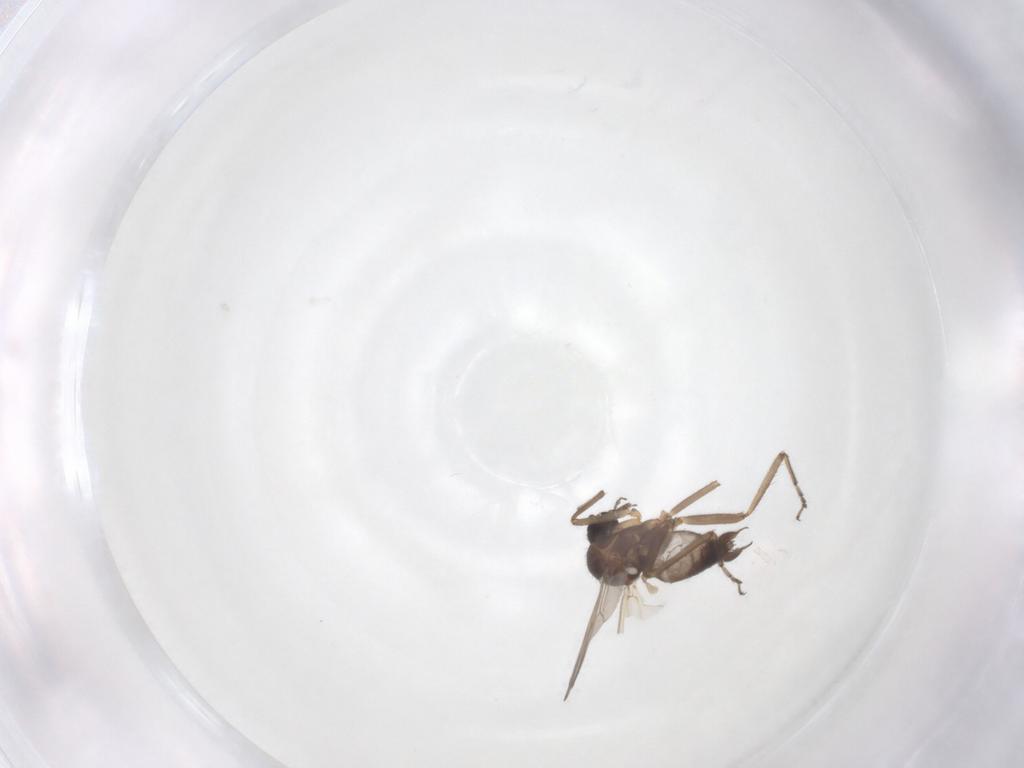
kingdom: Animalia
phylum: Arthropoda
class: Insecta
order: Diptera
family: Ceratopogonidae
